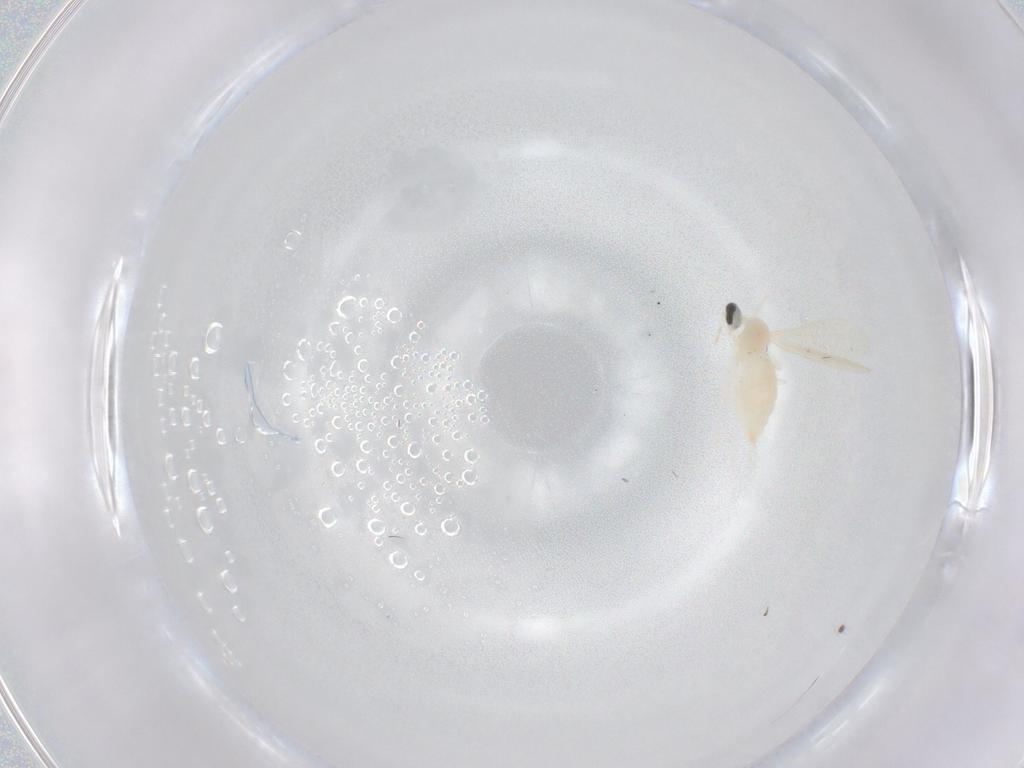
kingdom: Animalia
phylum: Arthropoda
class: Insecta
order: Diptera
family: Cecidomyiidae
